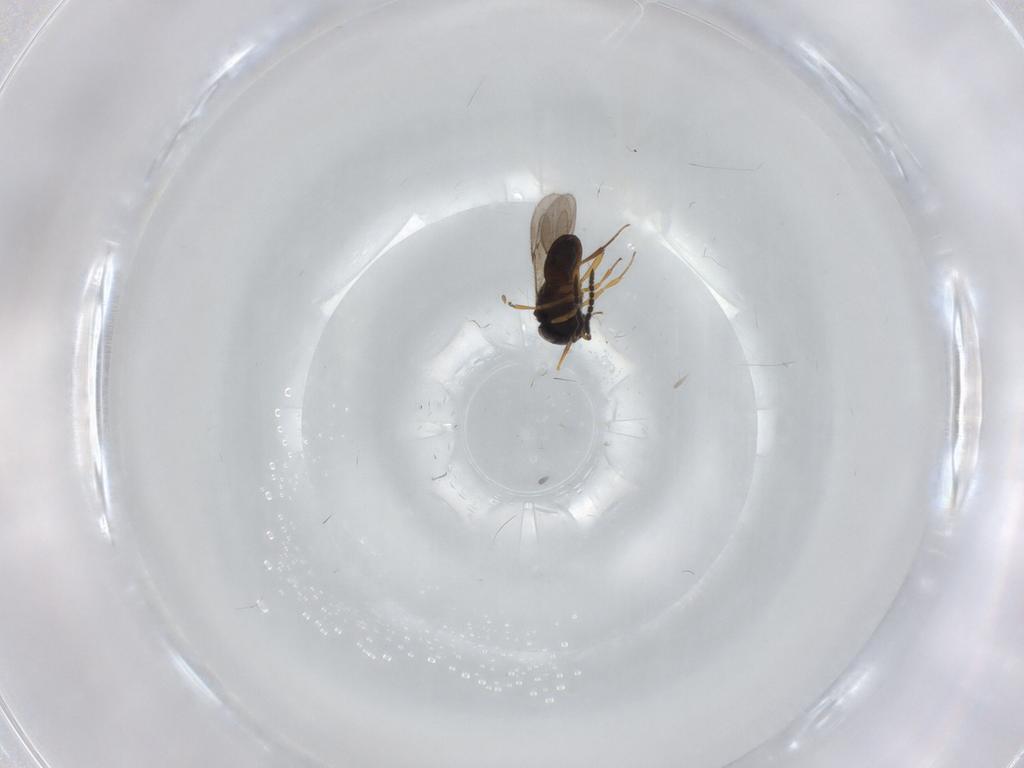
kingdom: Animalia
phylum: Arthropoda
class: Insecta
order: Hymenoptera
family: Scelionidae
